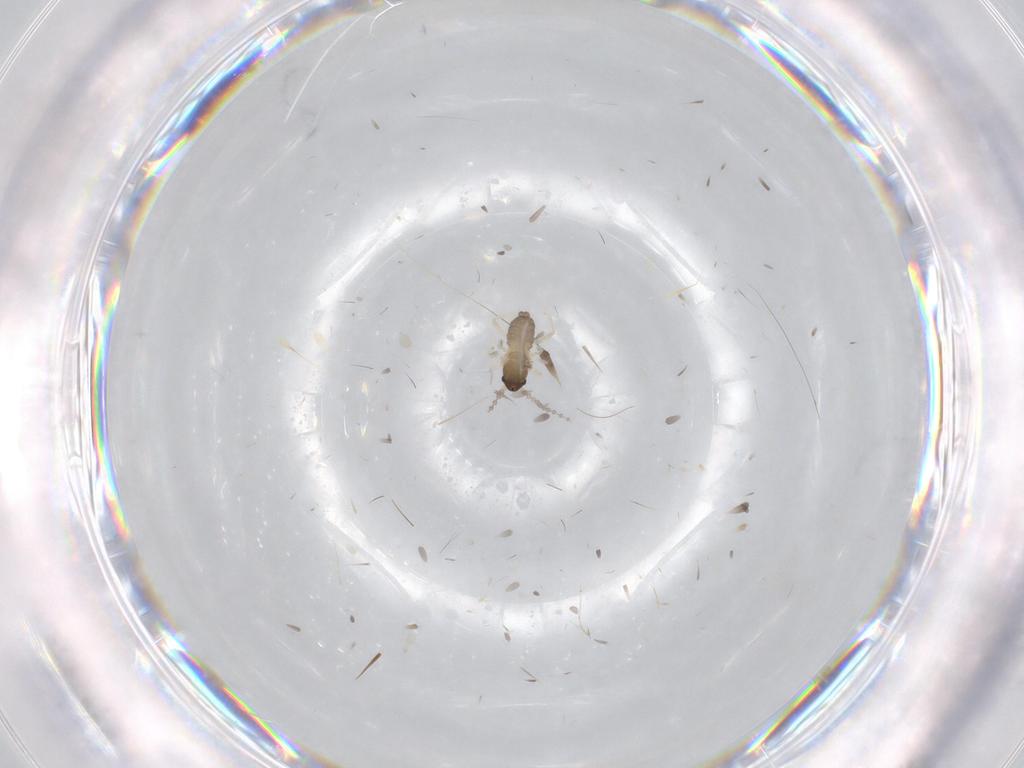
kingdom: Animalia
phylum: Arthropoda
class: Insecta
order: Diptera
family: Cecidomyiidae
